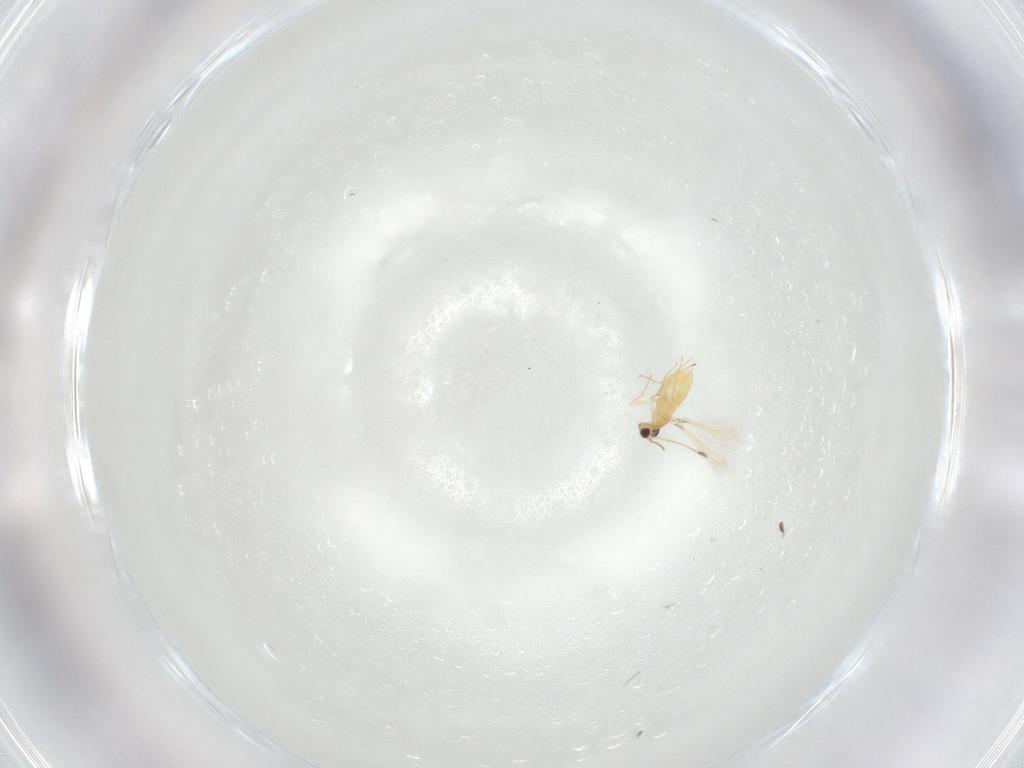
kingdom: Animalia
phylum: Arthropoda
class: Insecta
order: Hymenoptera
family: Mymaridae
